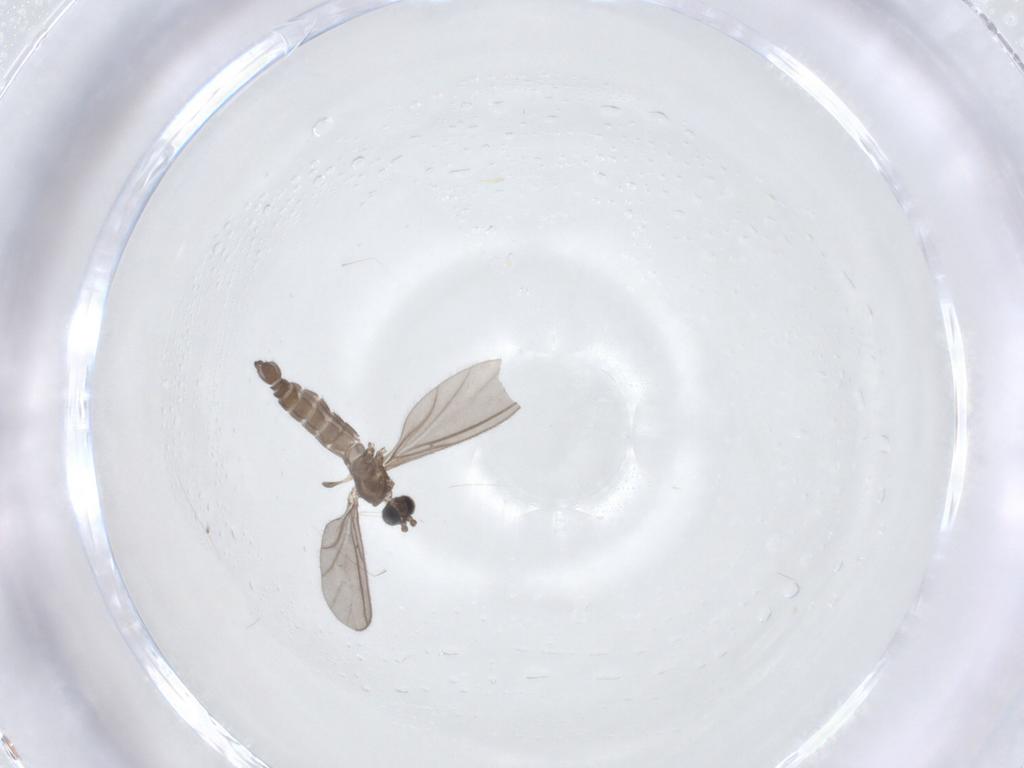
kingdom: Animalia
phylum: Arthropoda
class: Insecta
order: Diptera
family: Sciaridae
